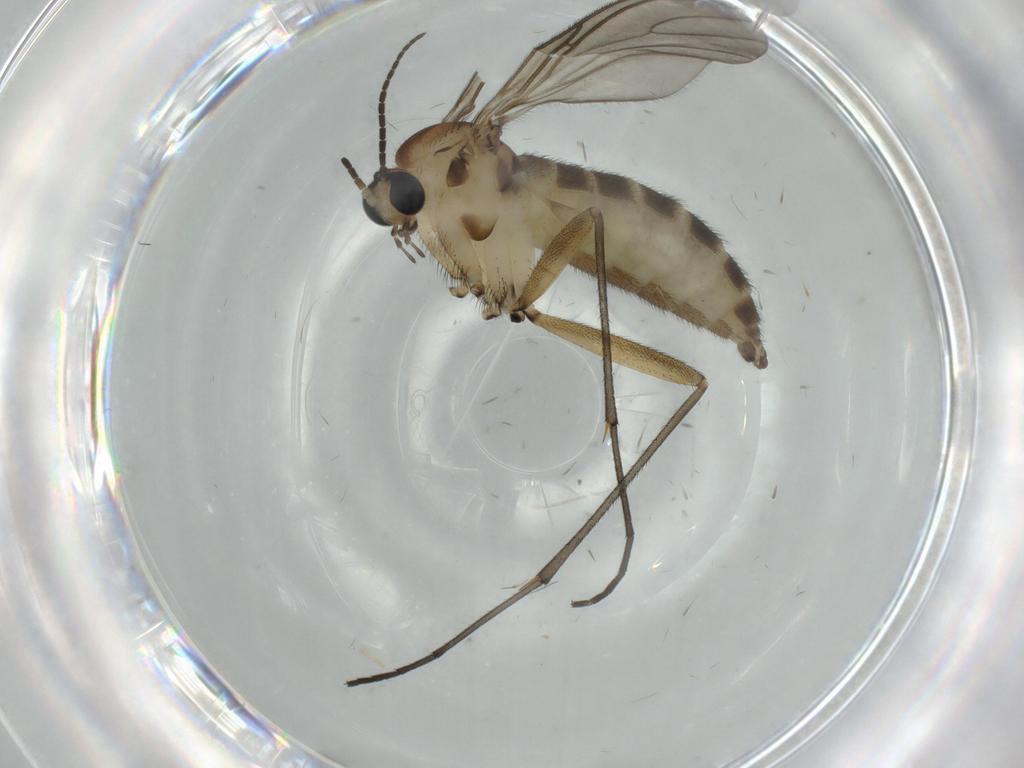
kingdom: Animalia
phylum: Arthropoda
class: Insecta
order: Diptera
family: Sciaridae
